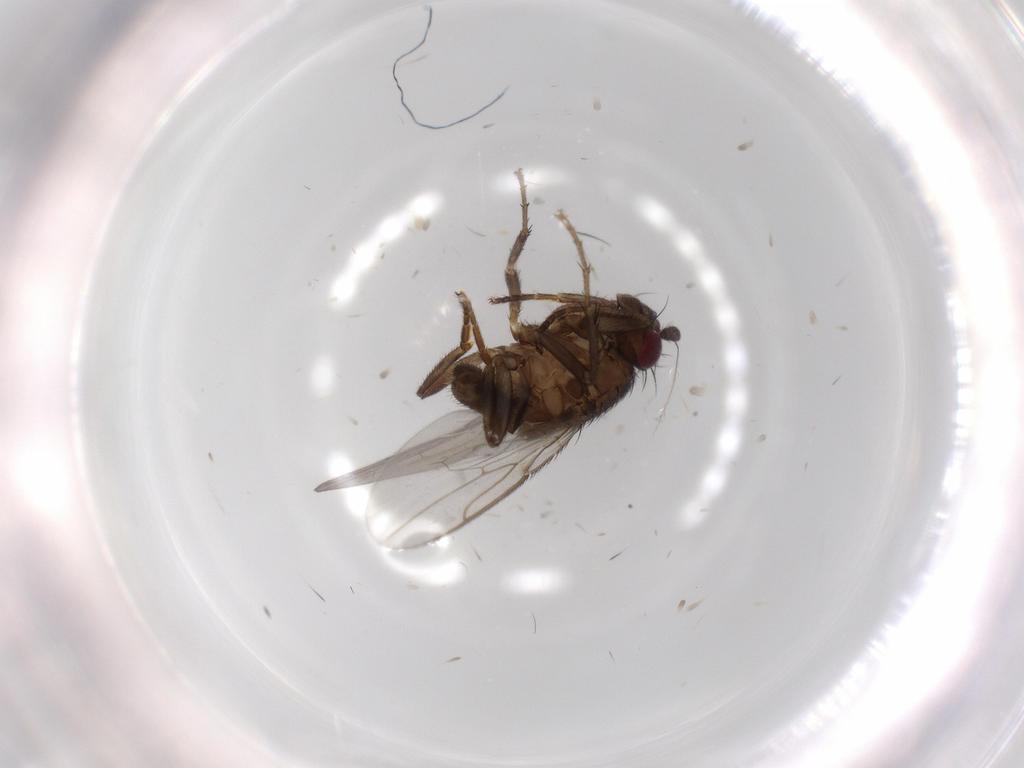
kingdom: Animalia
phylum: Arthropoda
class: Insecta
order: Diptera
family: Sphaeroceridae
